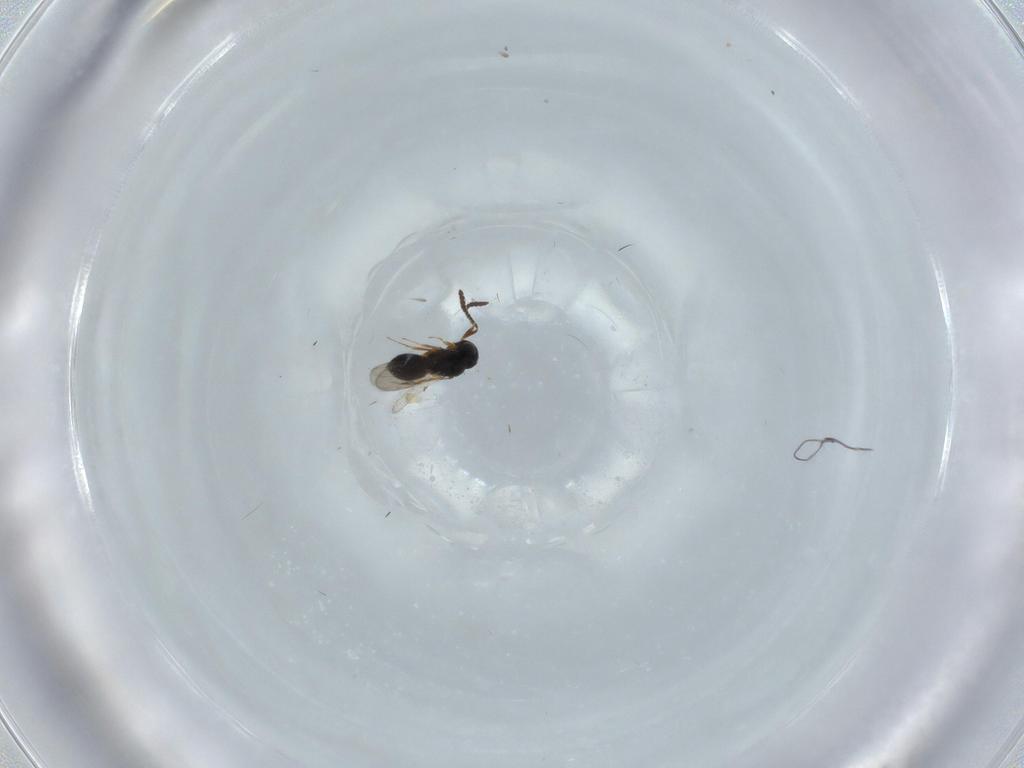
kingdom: Animalia
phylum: Arthropoda
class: Insecta
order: Hymenoptera
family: Scelionidae
